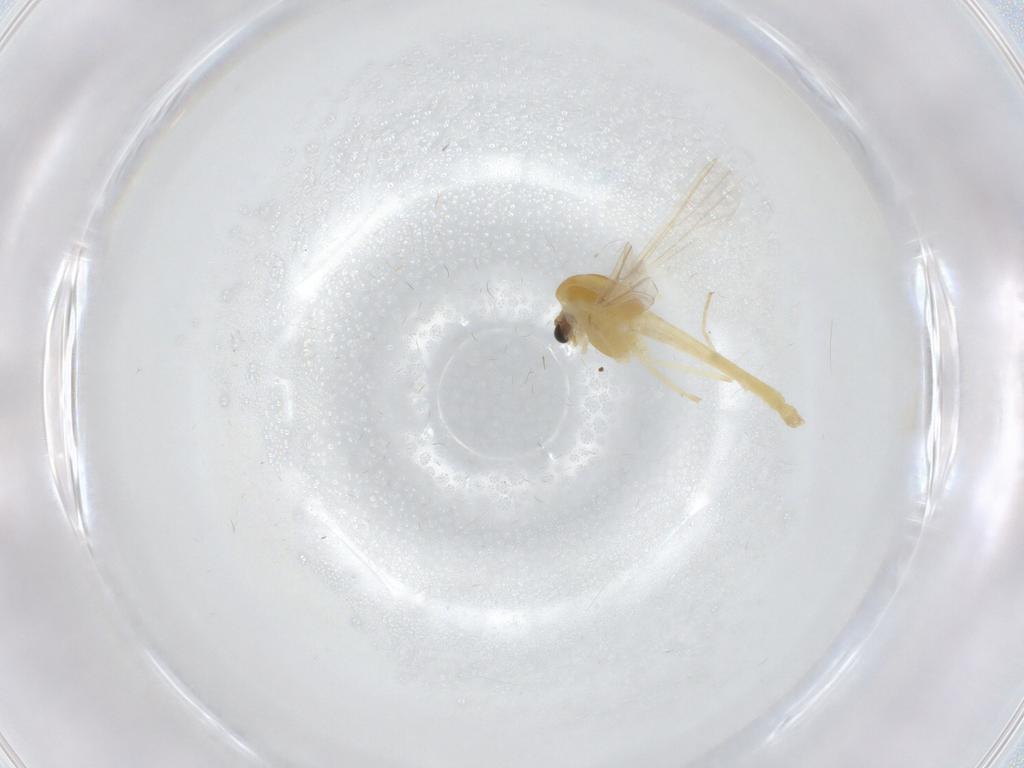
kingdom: Animalia
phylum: Arthropoda
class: Insecta
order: Diptera
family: Chironomidae
